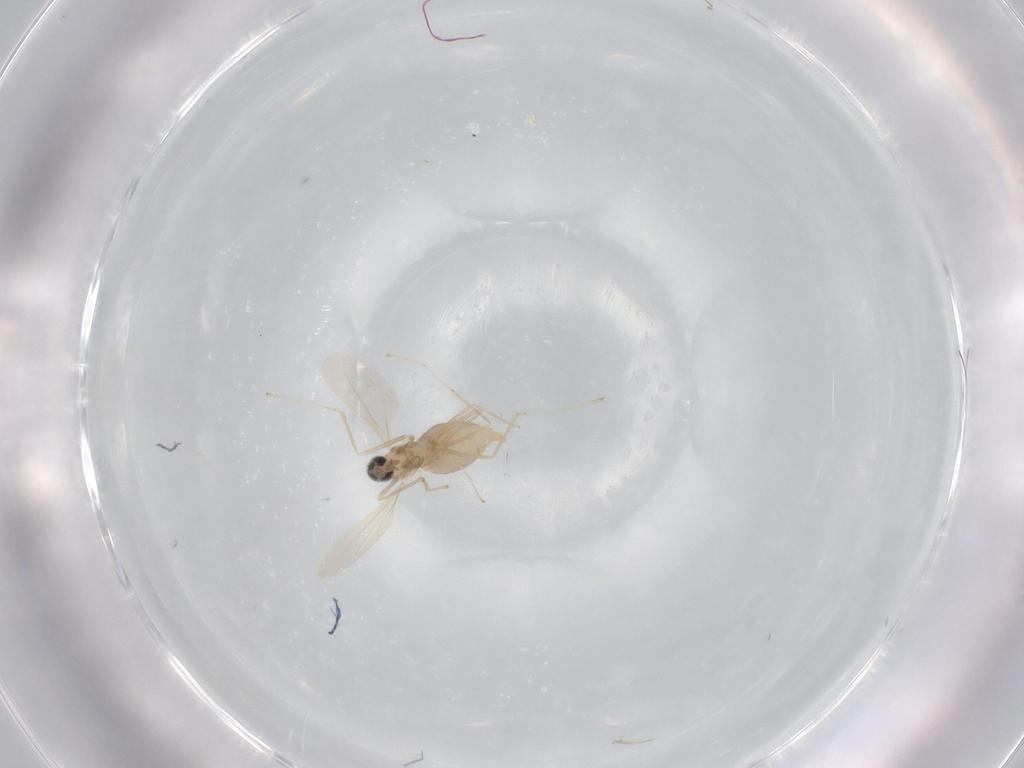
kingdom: Animalia
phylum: Arthropoda
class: Insecta
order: Diptera
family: Cecidomyiidae
